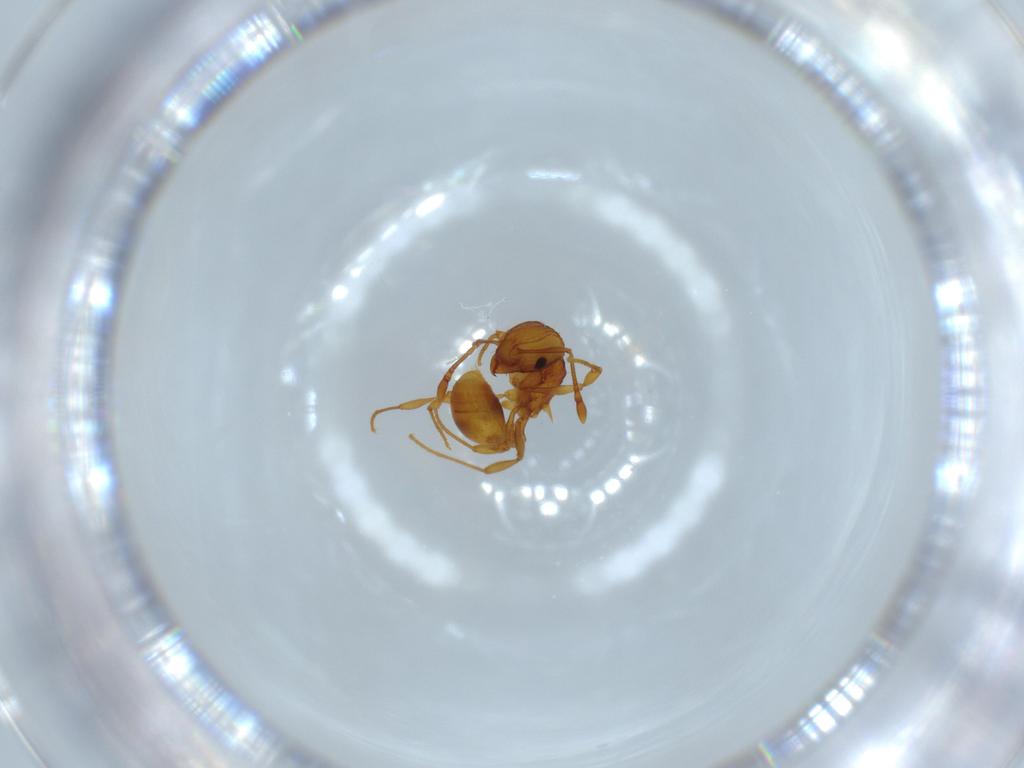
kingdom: Animalia
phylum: Arthropoda
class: Insecta
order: Hymenoptera
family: Formicidae
